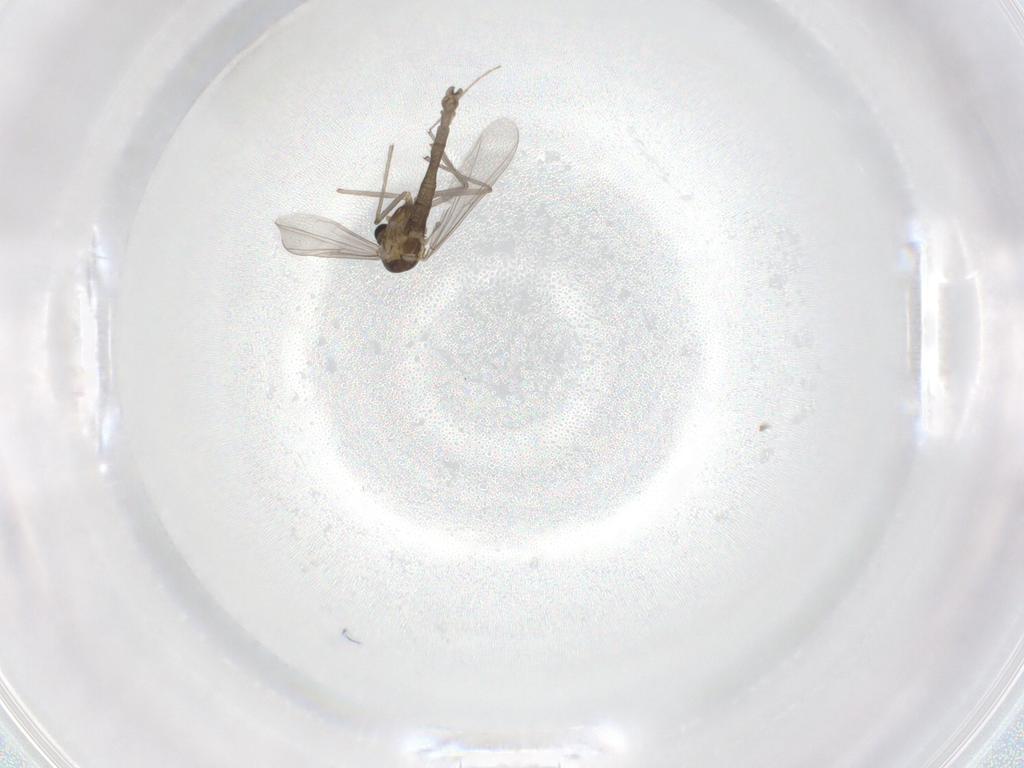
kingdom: Animalia
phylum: Arthropoda
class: Insecta
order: Diptera
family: Chironomidae
